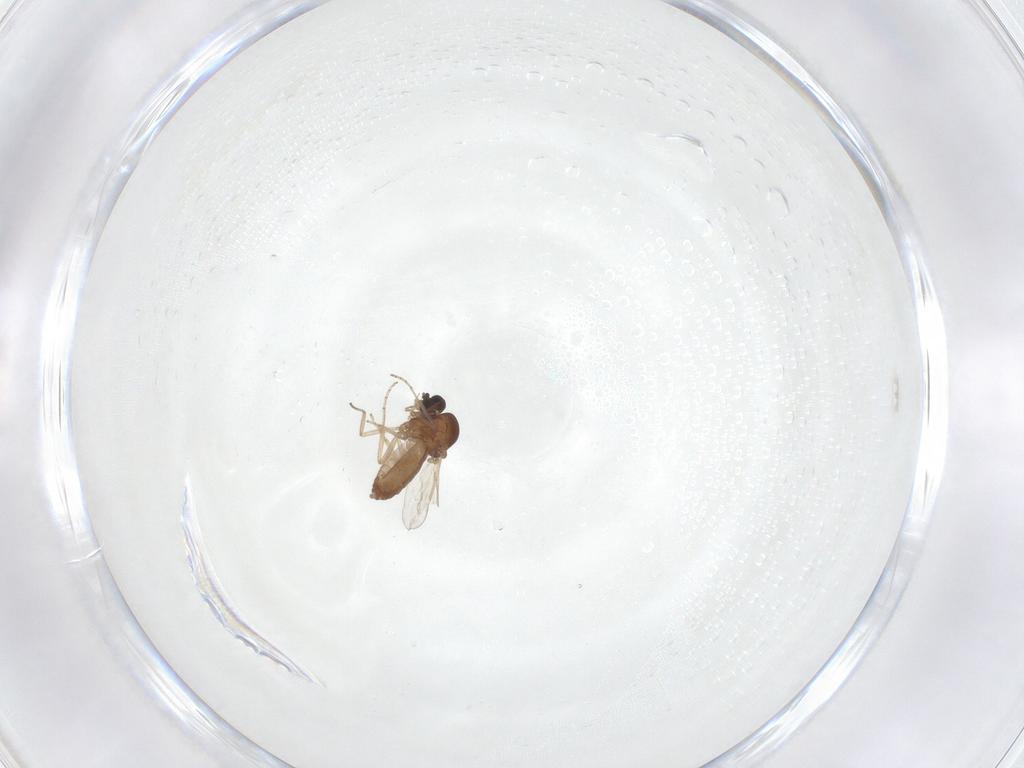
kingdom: Animalia
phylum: Arthropoda
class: Insecta
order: Diptera
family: Ceratopogonidae
